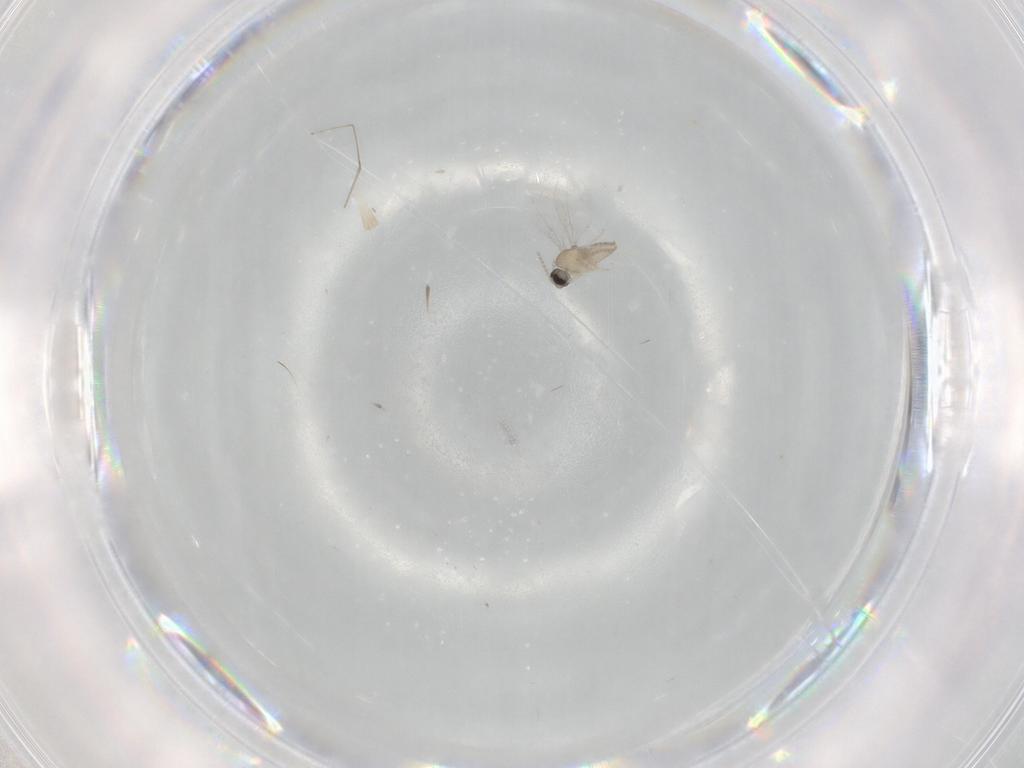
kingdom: Animalia
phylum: Arthropoda
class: Insecta
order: Diptera
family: Cecidomyiidae
